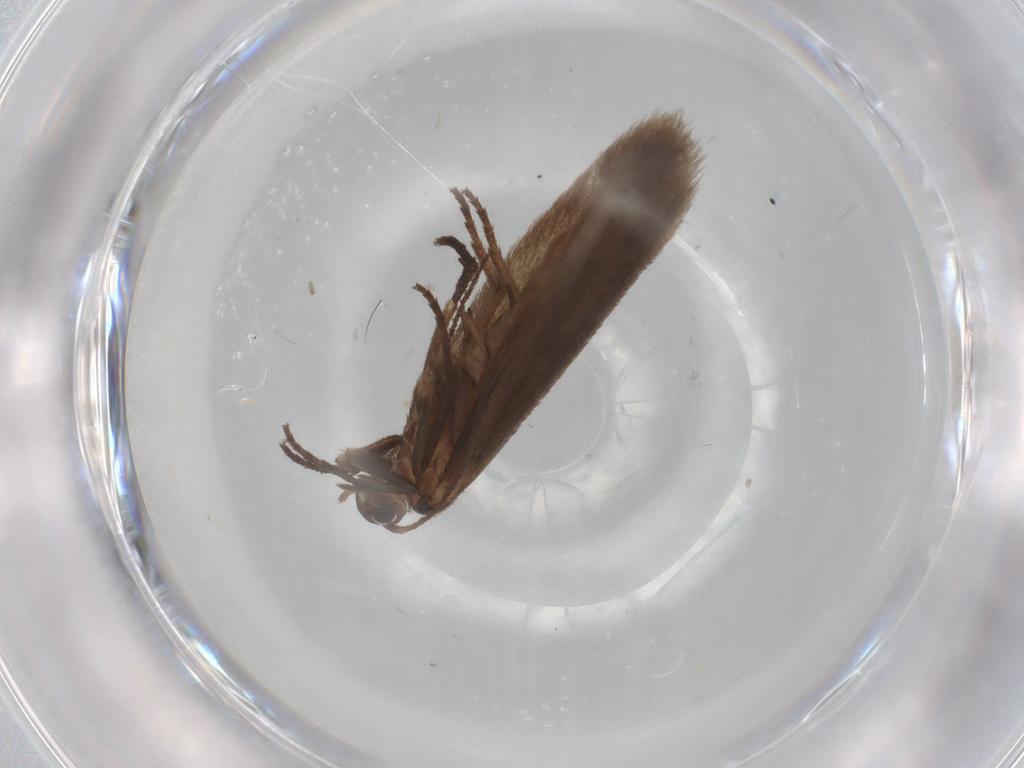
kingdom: Animalia
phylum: Arthropoda
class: Insecta
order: Lepidoptera
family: Limacodidae
